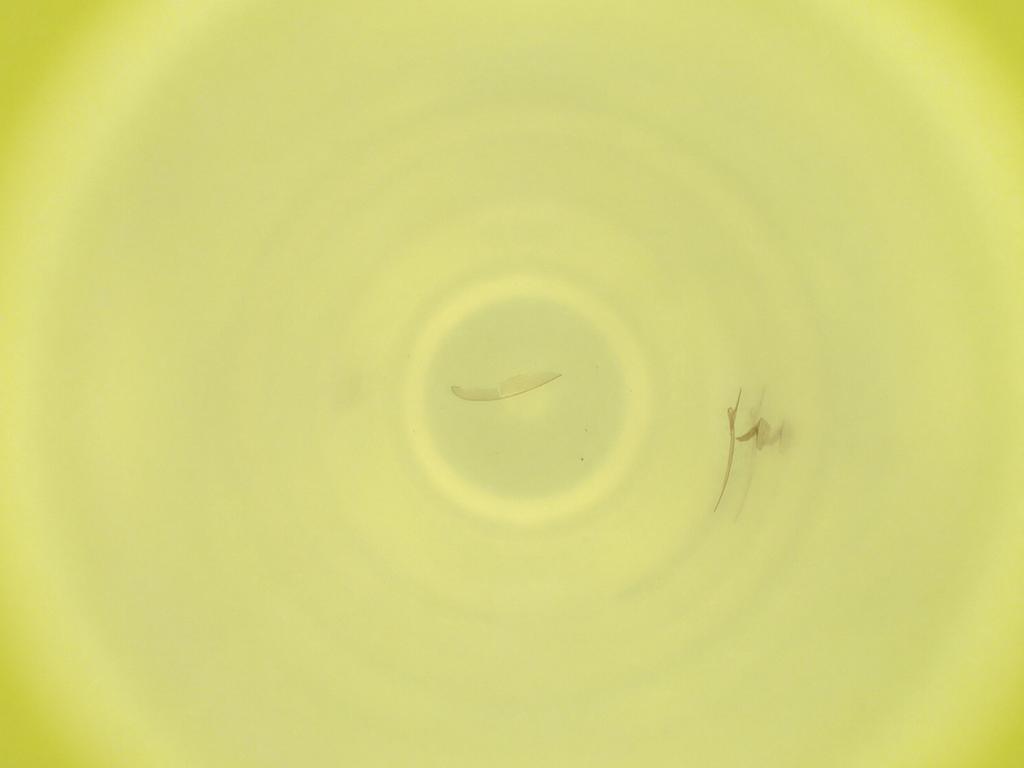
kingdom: Animalia
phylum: Arthropoda
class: Insecta
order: Diptera
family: Cecidomyiidae
